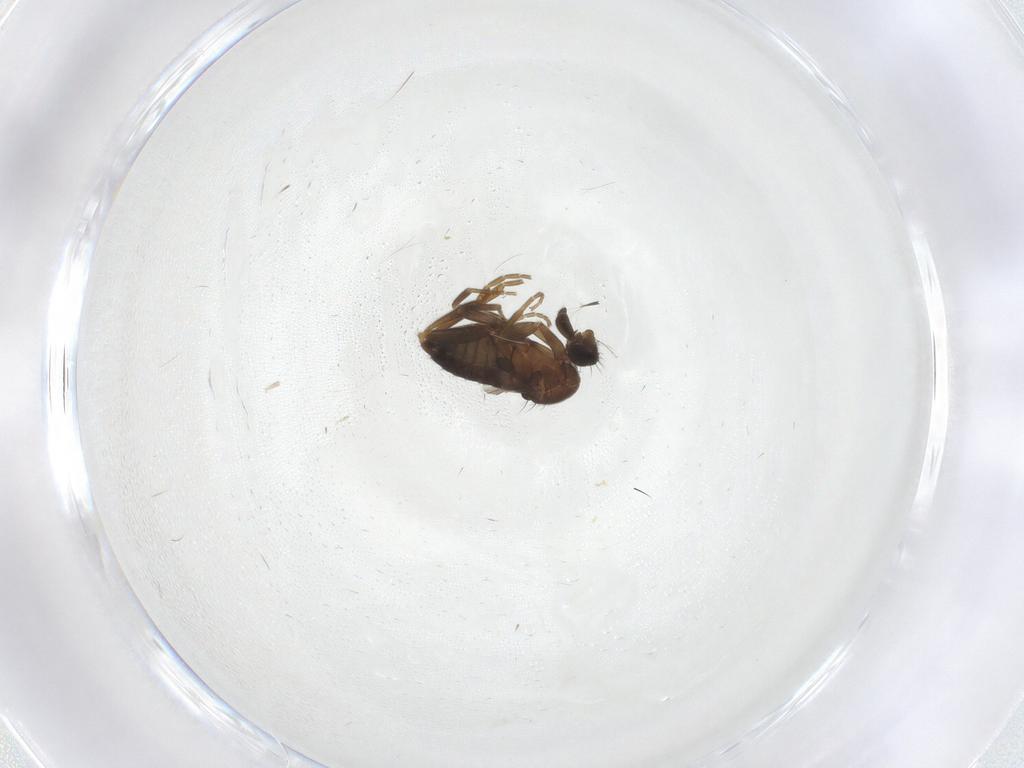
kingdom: Animalia
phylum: Arthropoda
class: Insecta
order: Diptera
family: Phoridae
